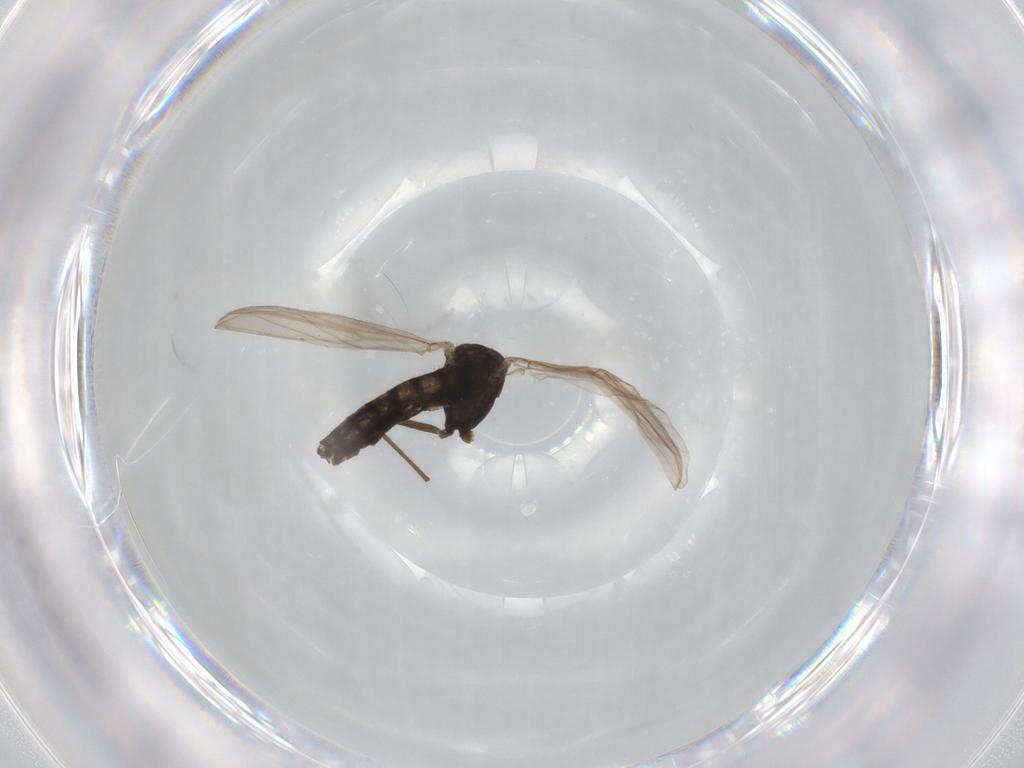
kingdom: Animalia
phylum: Arthropoda
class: Insecta
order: Diptera
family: Chironomidae
